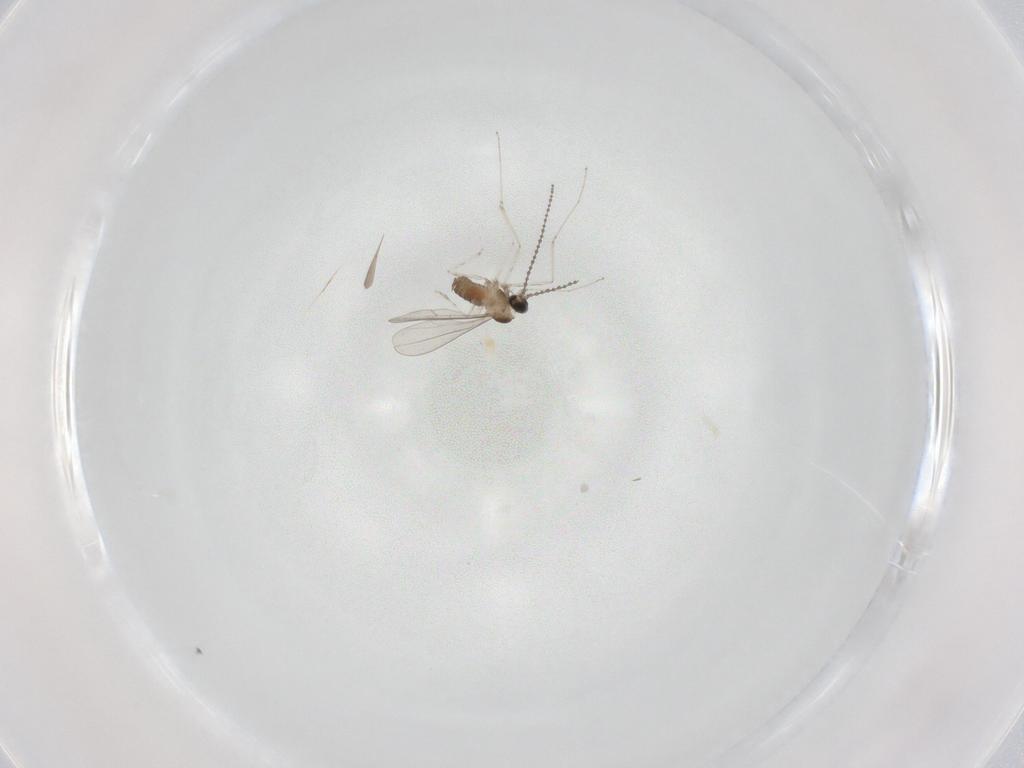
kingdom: Animalia
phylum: Arthropoda
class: Insecta
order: Diptera
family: Cecidomyiidae
